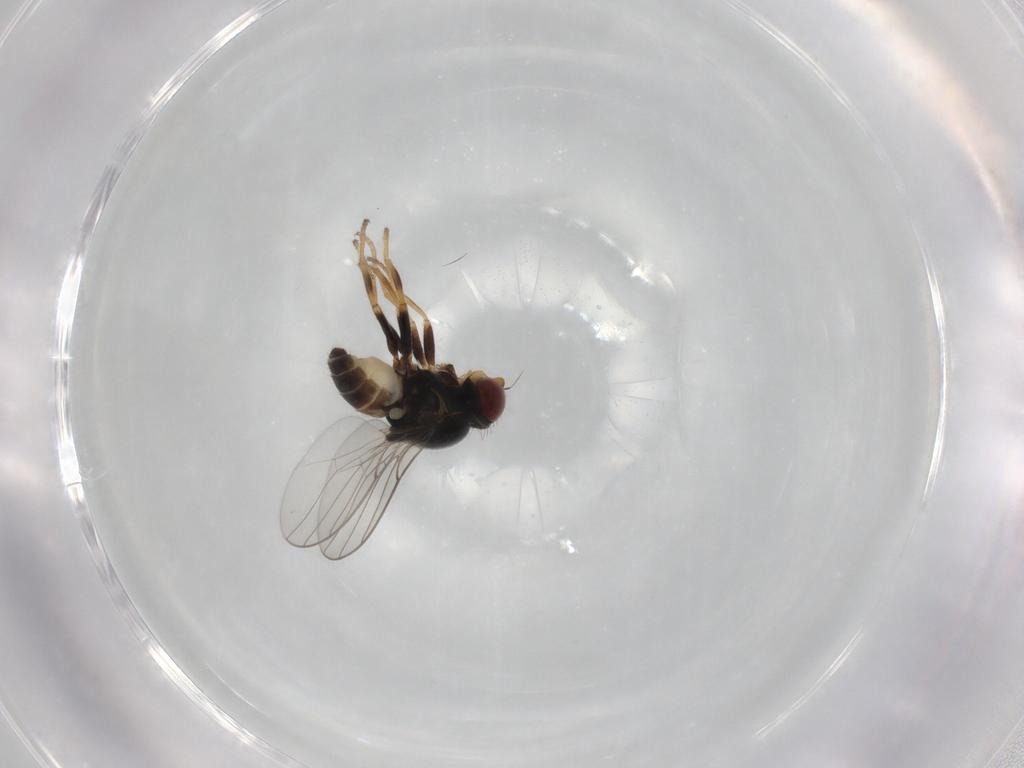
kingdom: Animalia
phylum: Arthropoda
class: Insecta
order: Diptera
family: Chloropidae
